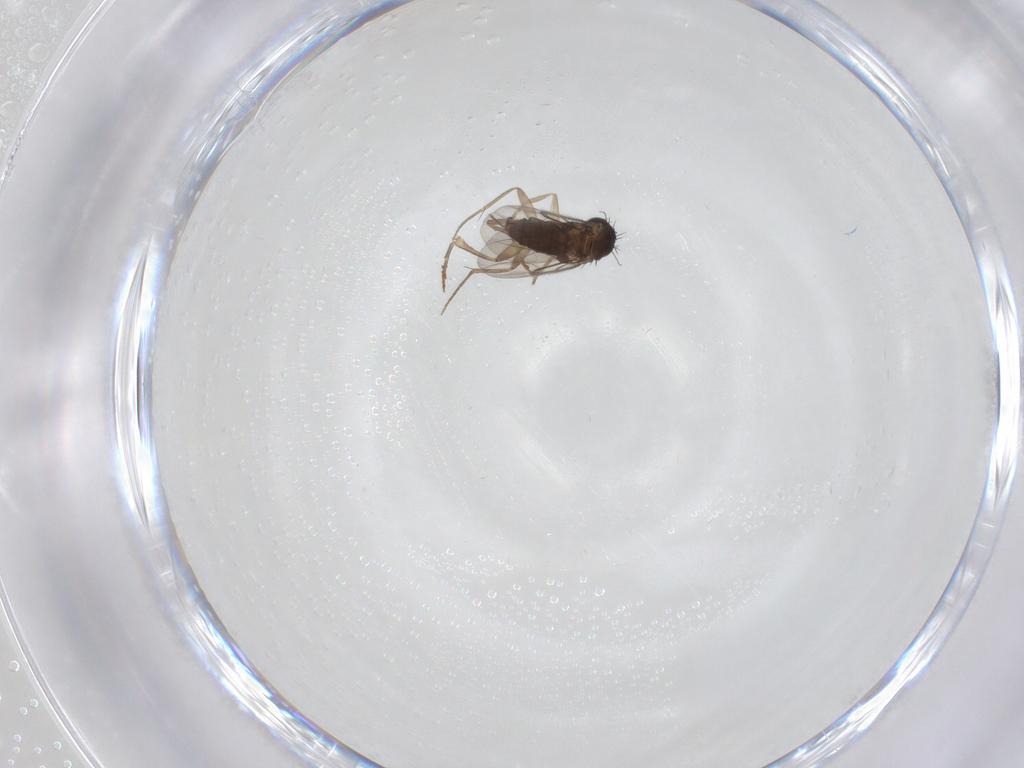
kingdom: Animalia
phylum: Arthropoda
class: Insecta
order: Diptera
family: Phoridae
